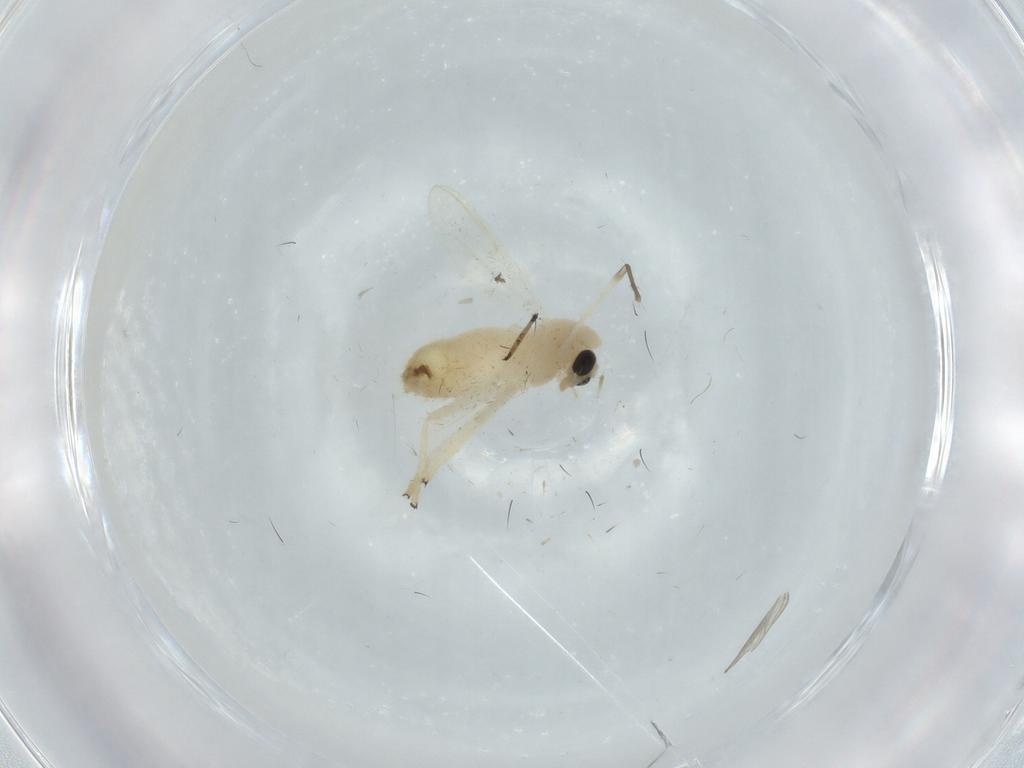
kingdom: Animalia
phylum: Arthropoda
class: Insecta
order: Diptera
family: Chironomidae
